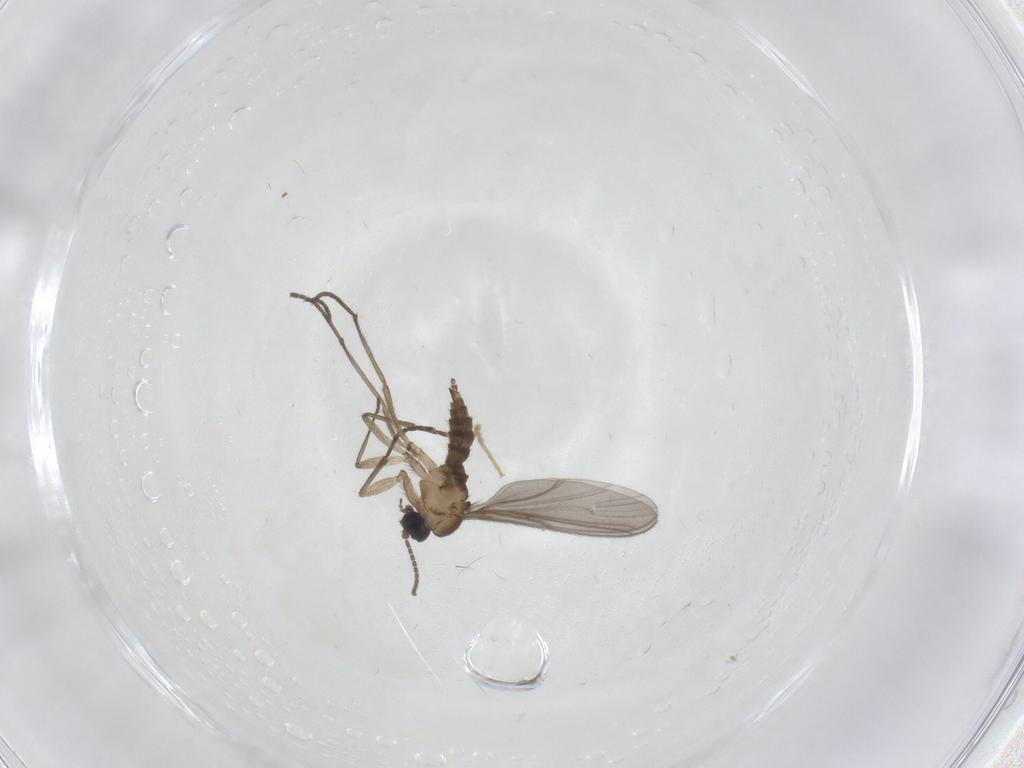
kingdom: Animalia
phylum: Arthropoda
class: Insecta
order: Diptera
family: Sciaridae
